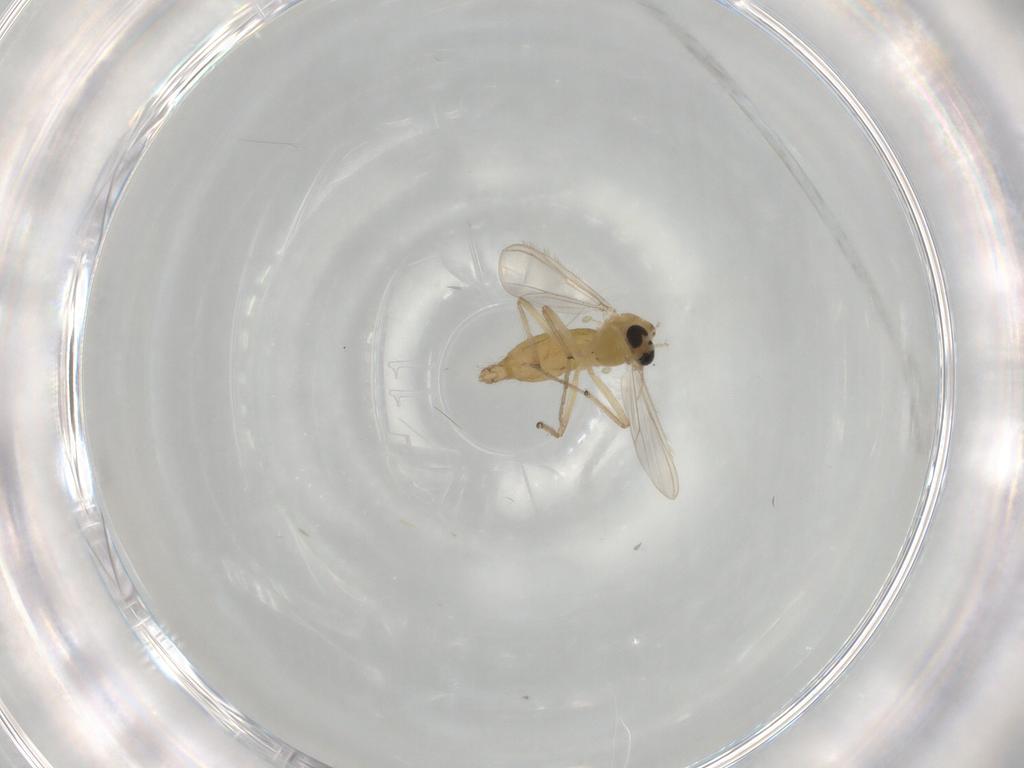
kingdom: Animalia
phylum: Arthropoda
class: Insecta
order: Diptera
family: Chironomidae
